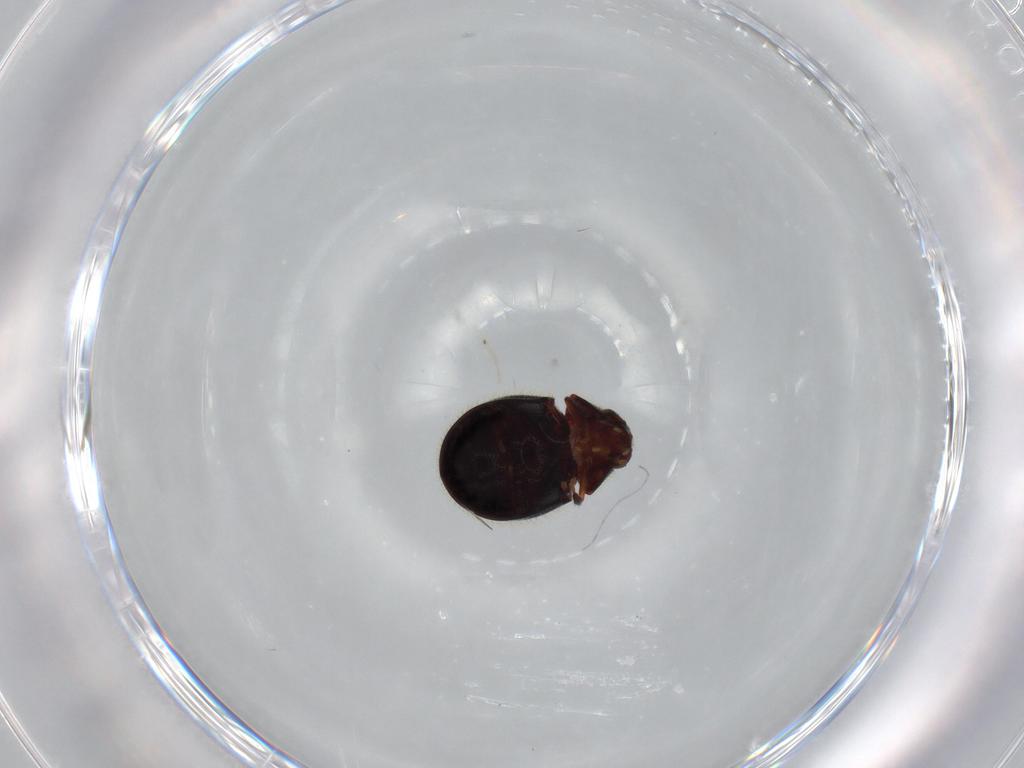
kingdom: Animalia
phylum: Arthropoda
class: Insecta
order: Coleoptera
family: Ptinidae
